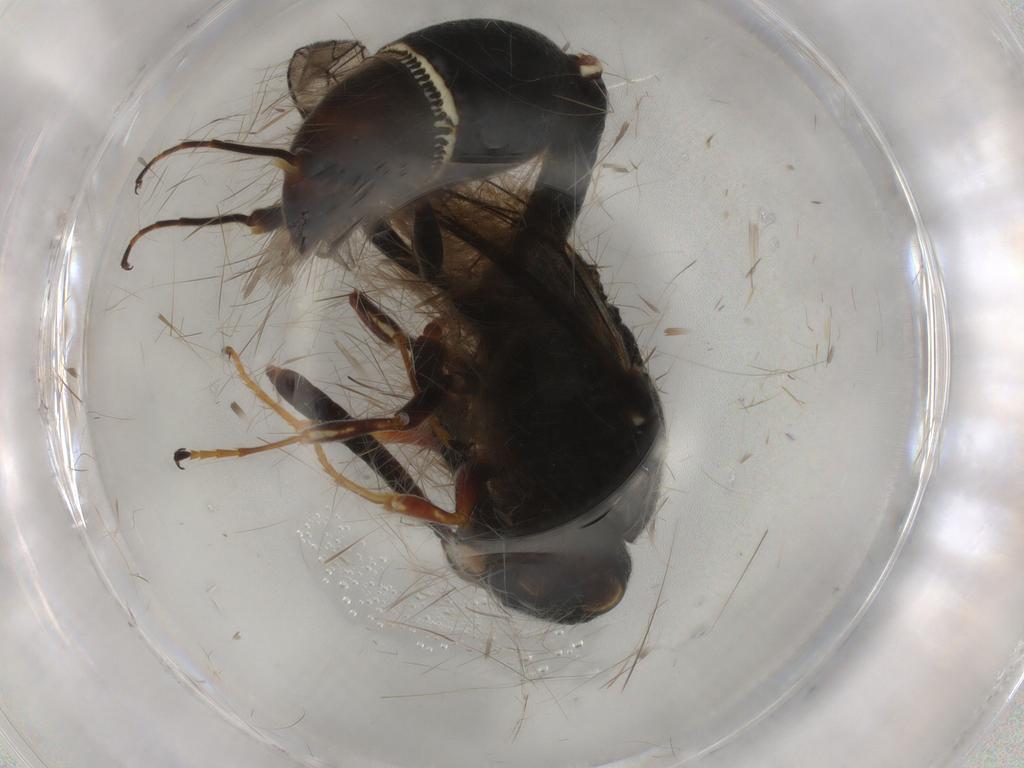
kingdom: Animalia
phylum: Arthropoda
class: Insecta
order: Hymenoptera
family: Vespidae
